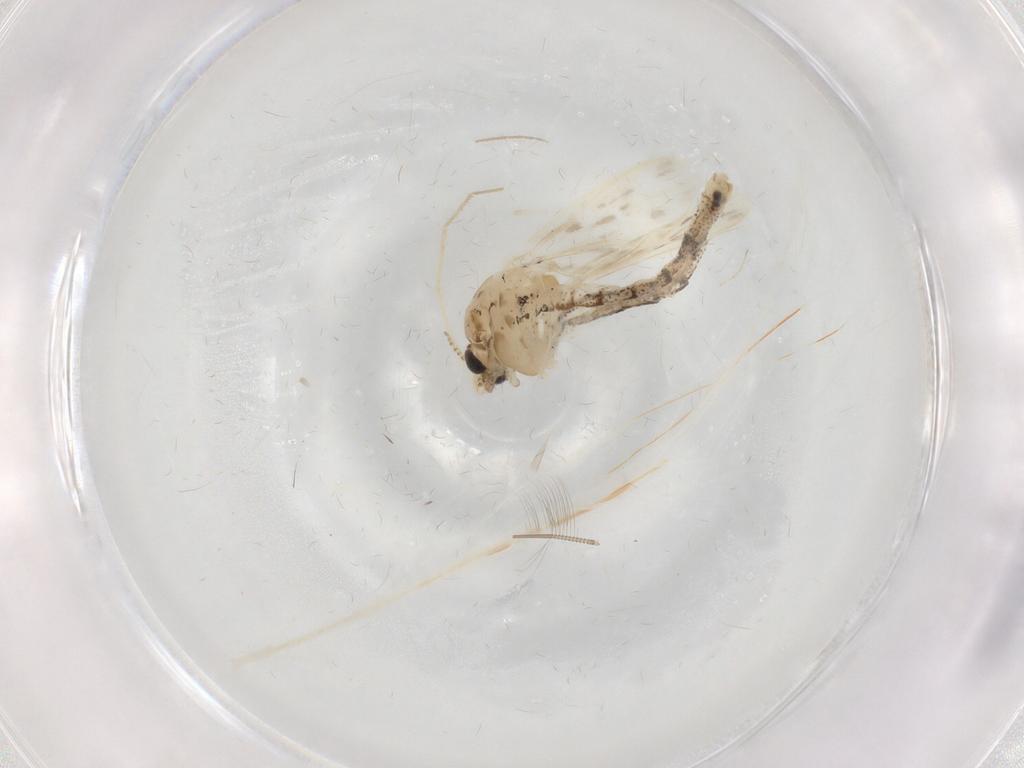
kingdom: Animalia
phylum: Arthropoda
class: Insecta
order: Diptera
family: Chaoboridae
